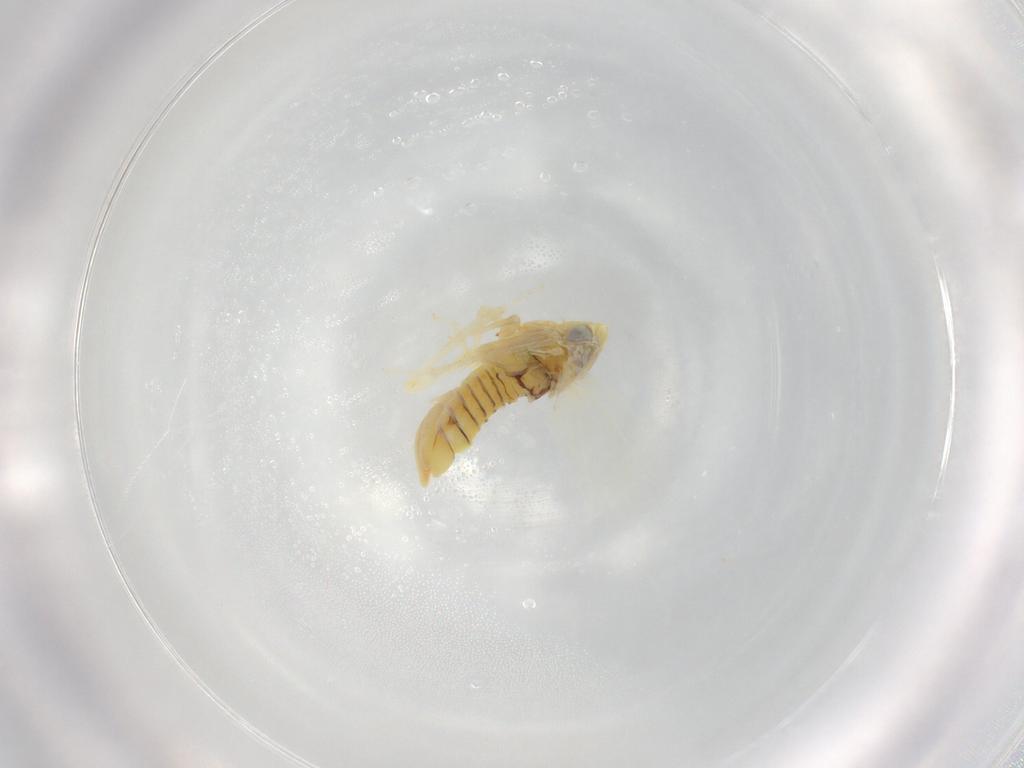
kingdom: Animalia
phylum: Arthropoda
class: Insecta
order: Hemiptera
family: Cicadellidae
